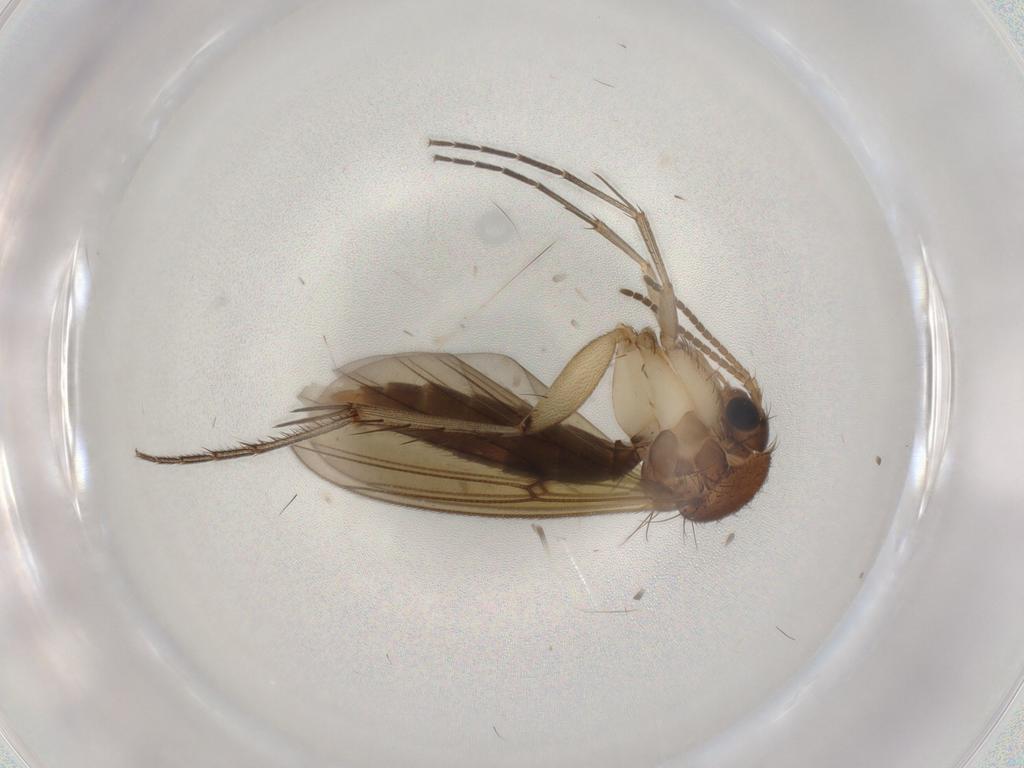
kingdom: Animalia
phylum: Arthropoda
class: Insecta
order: Diptera
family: Mycetophilidae
